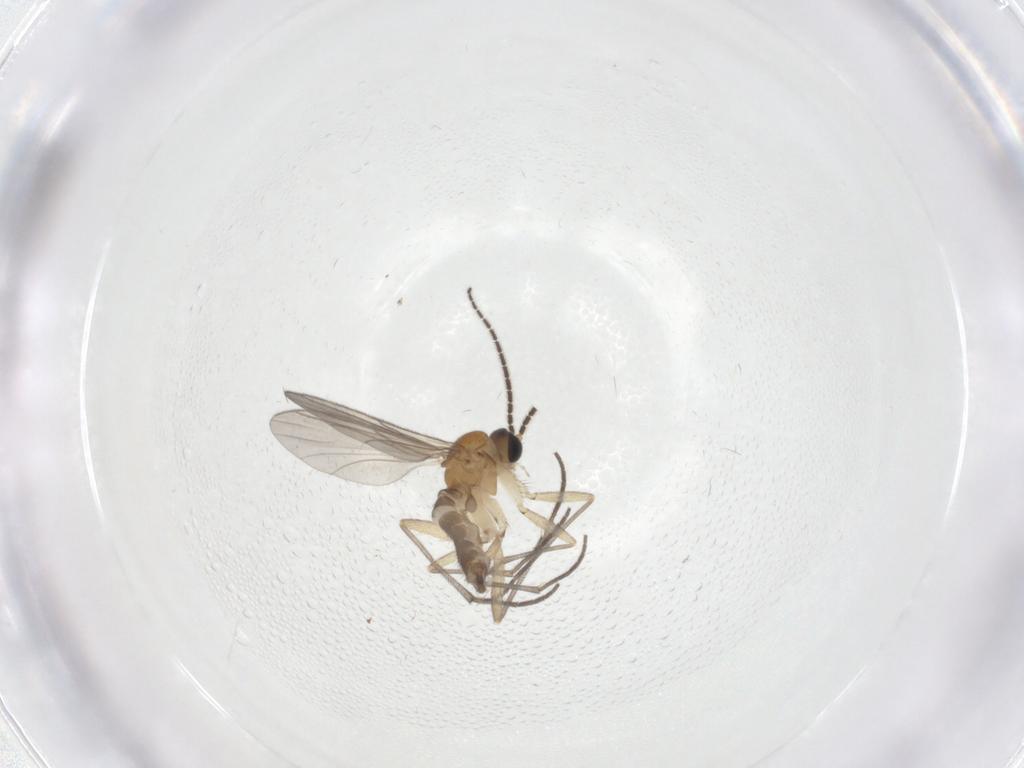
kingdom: Animalia
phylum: Arthropoda
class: Insecta
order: Diptera
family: Sciaridae
